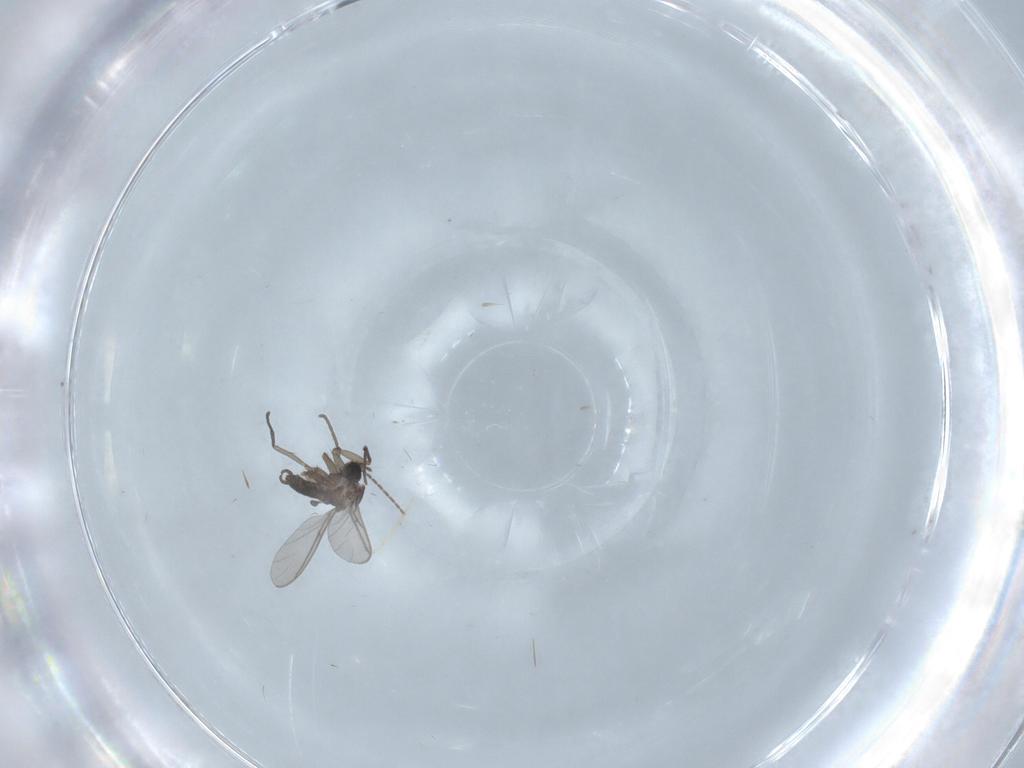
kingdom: Animalia
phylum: Arthropoda
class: Insecta
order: Diptera
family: Sciaridae
